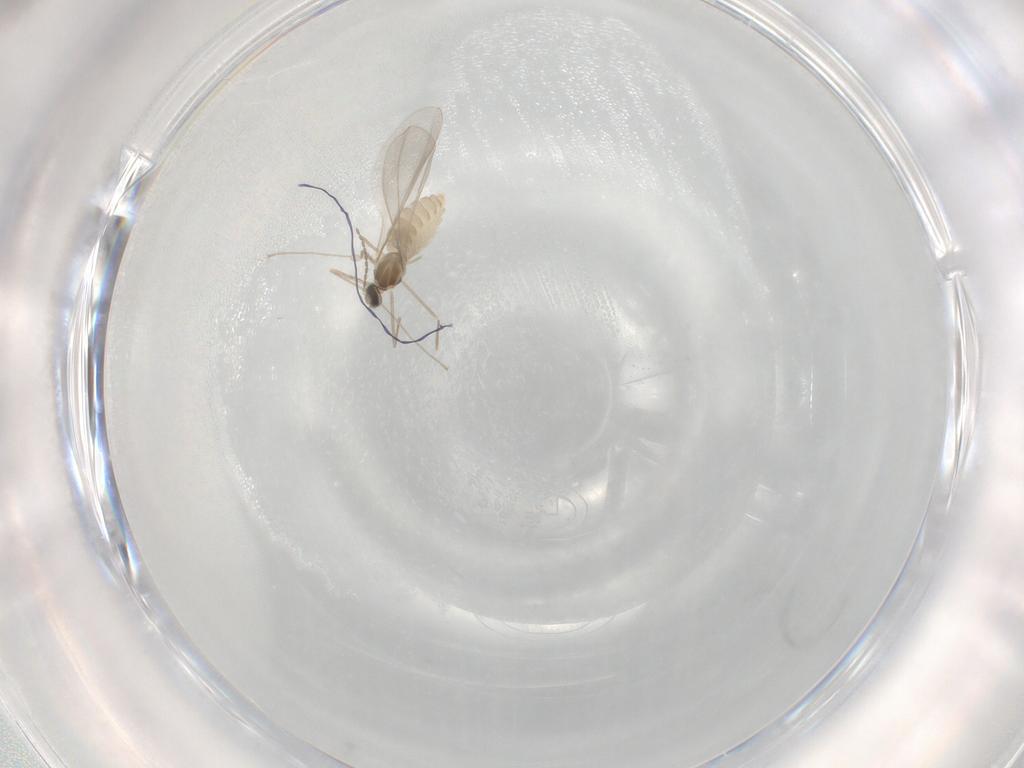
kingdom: Animalia
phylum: Arthropoda
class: Insecta
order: Diptera
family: Cecidomyiidae
